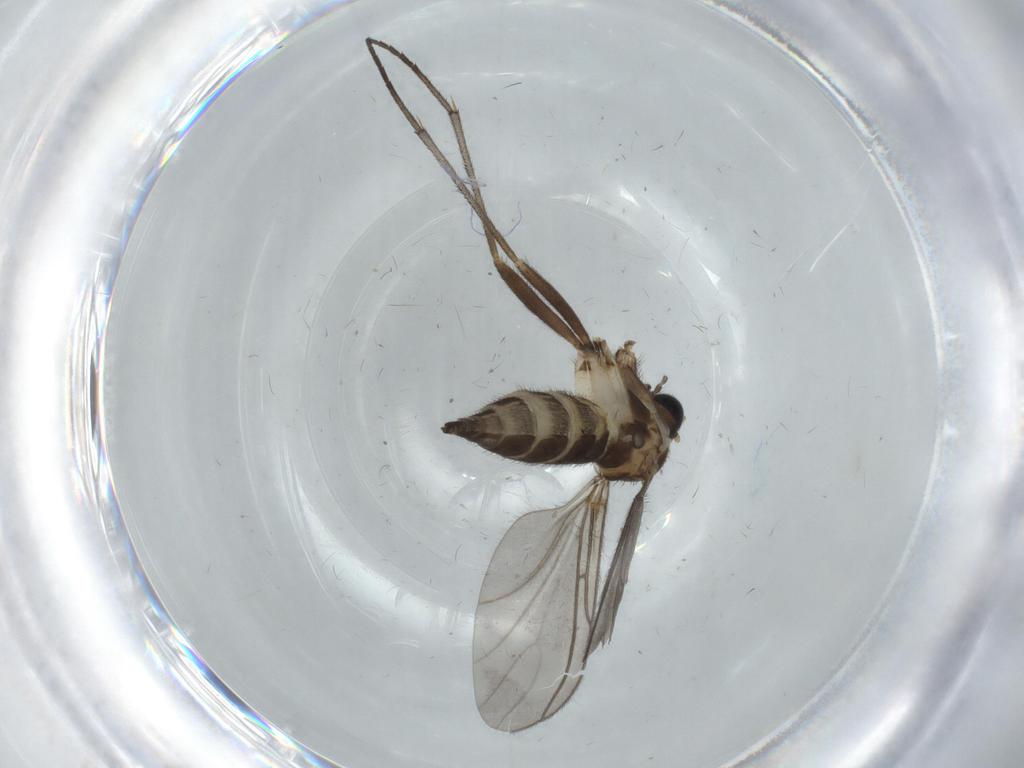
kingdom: Animalia
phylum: Arthropoda
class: Insecta
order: Diptera
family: Sciaridae
